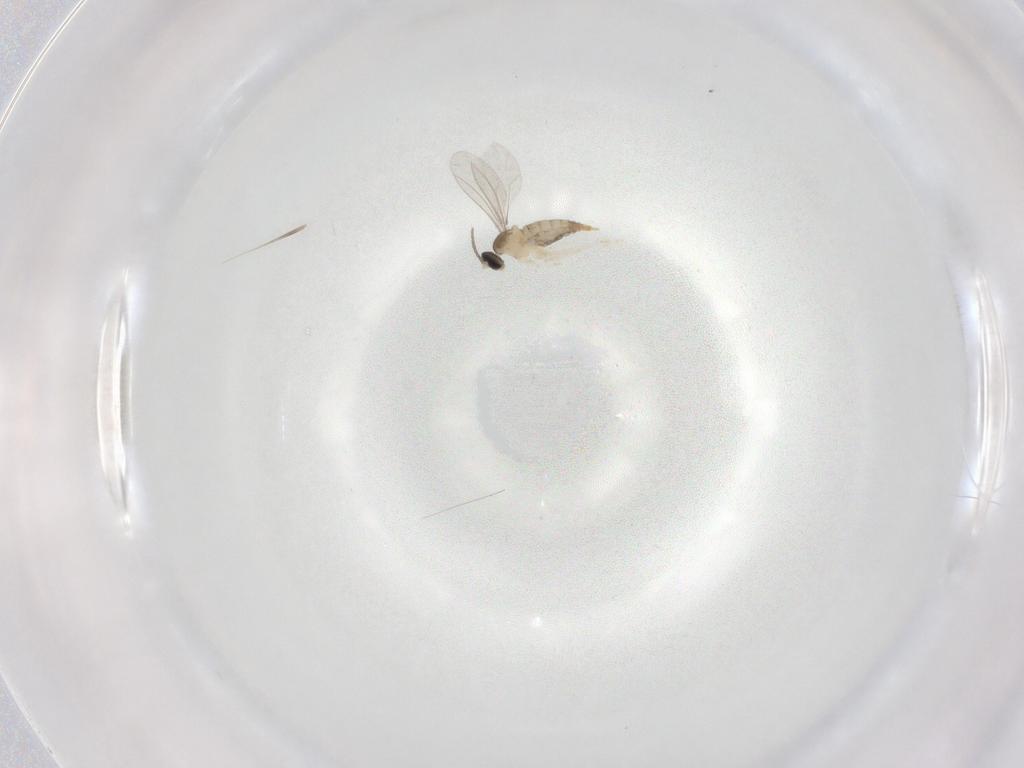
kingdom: Animalia
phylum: Arthropoda
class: Insecta
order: Diptera
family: Cecidomyiidae
